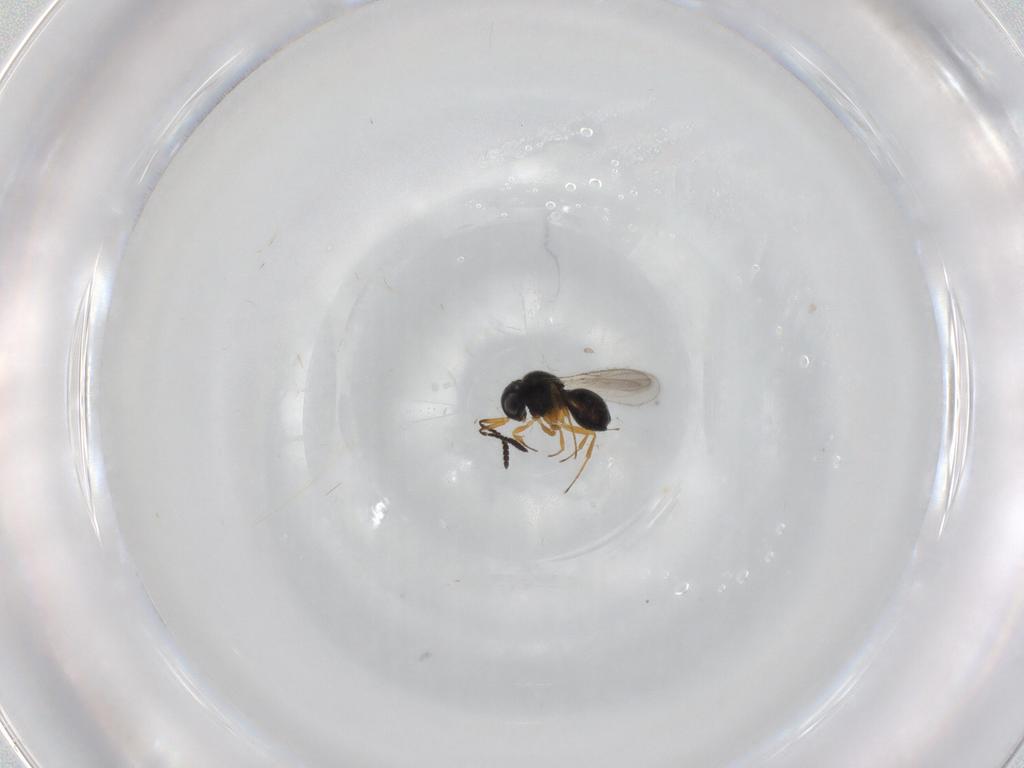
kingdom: Animalia
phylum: Arthropoda
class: Insecta
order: Hymenoptera
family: Scelionidae
